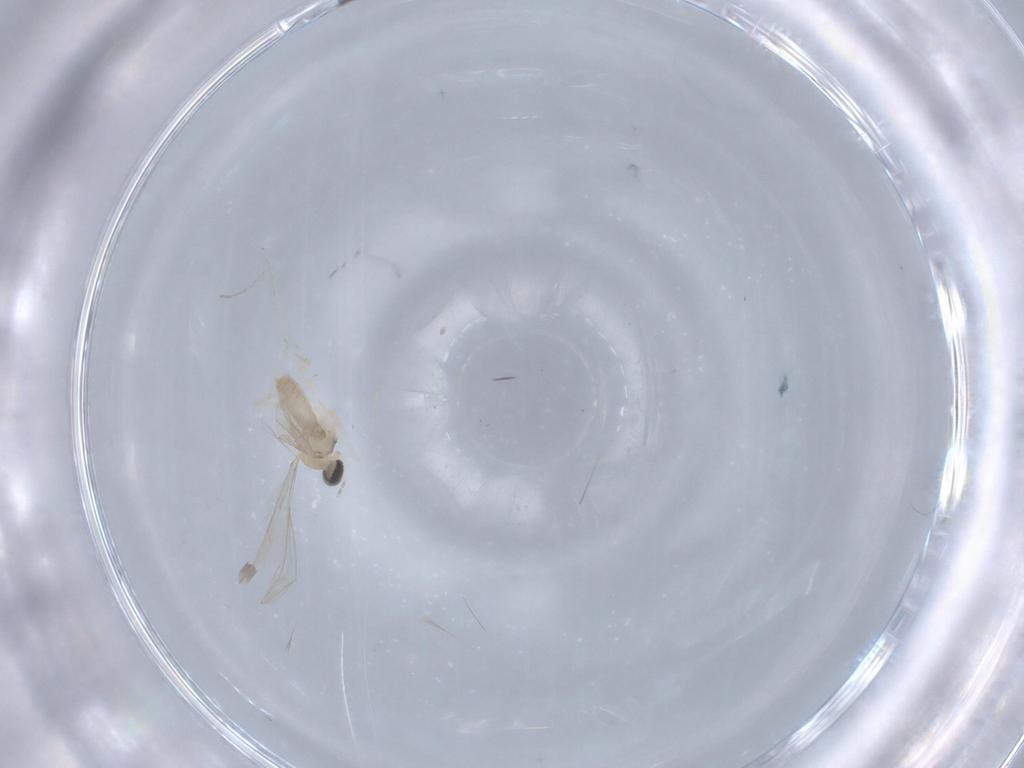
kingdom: Animalia
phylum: Arthropoda
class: Insecta
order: Diptera
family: Cecidomyiidae
